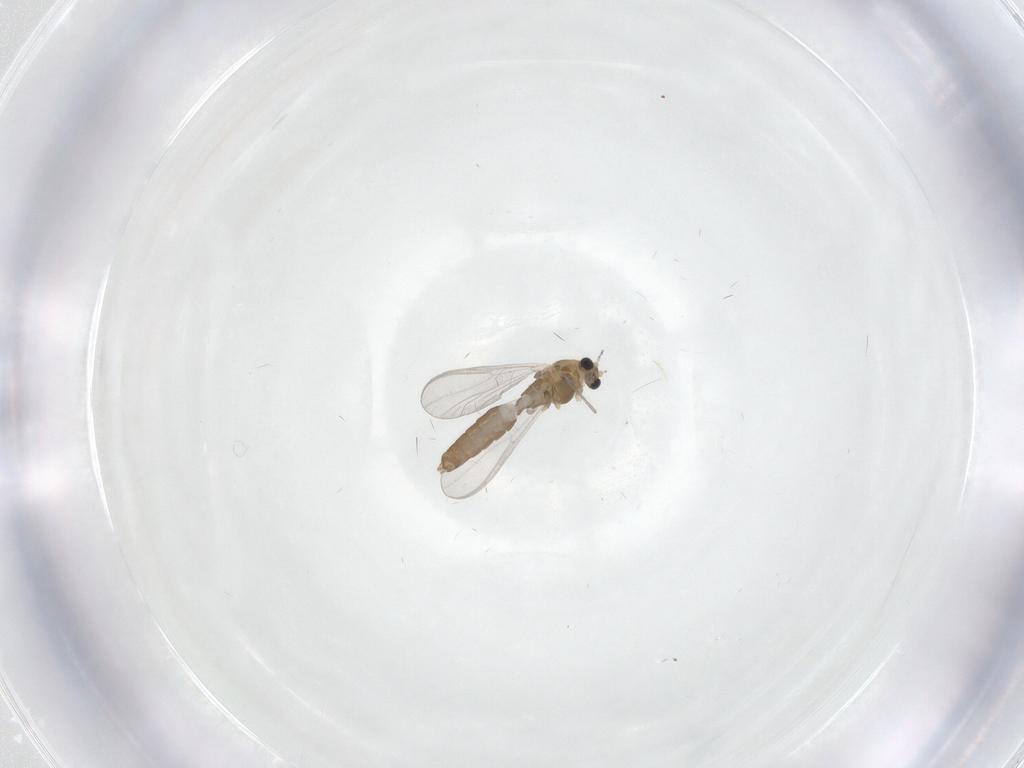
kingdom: Animalia
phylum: Arthropoda
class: Insecta
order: Diptera
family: Chironomidae
